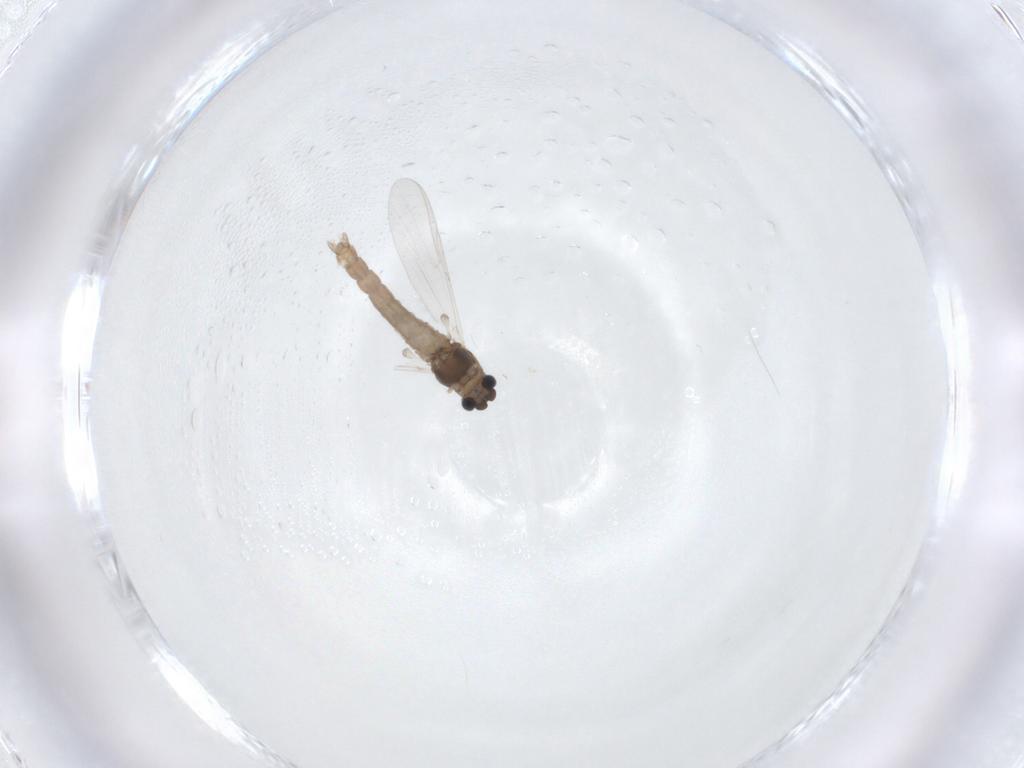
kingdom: Animalia
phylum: Arthropoda
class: Insecta
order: Diptera
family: Chironomidae
